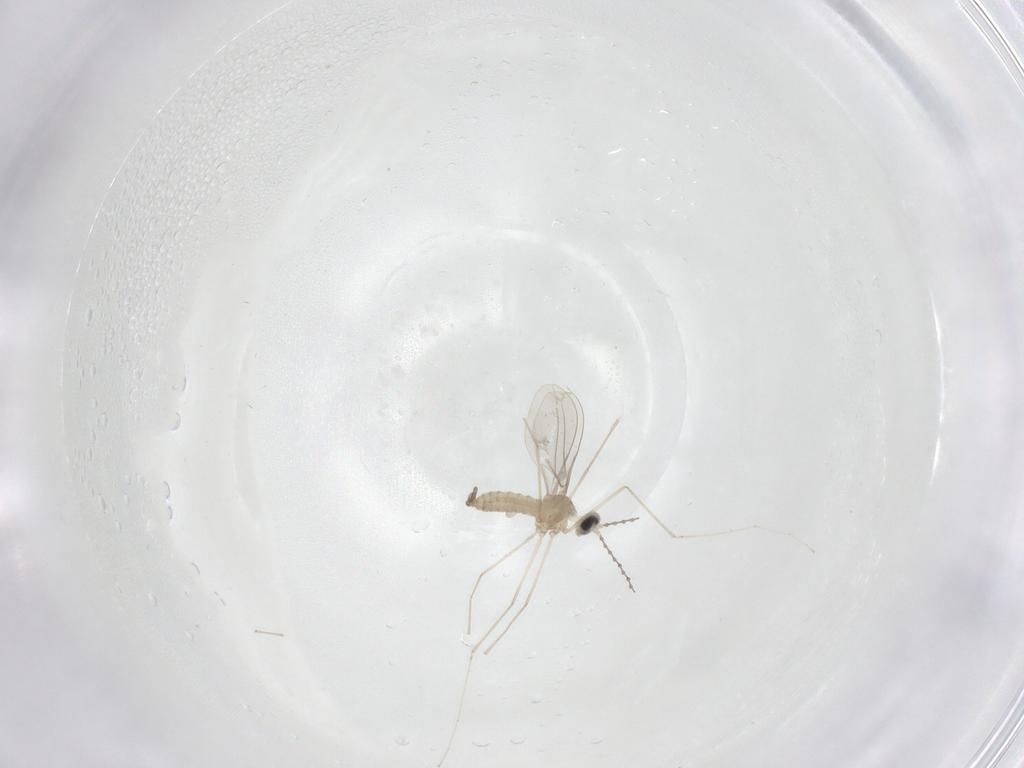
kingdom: Animalia
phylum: Arthropoda
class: Insecta
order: Diptera
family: Cecidomyiidae
